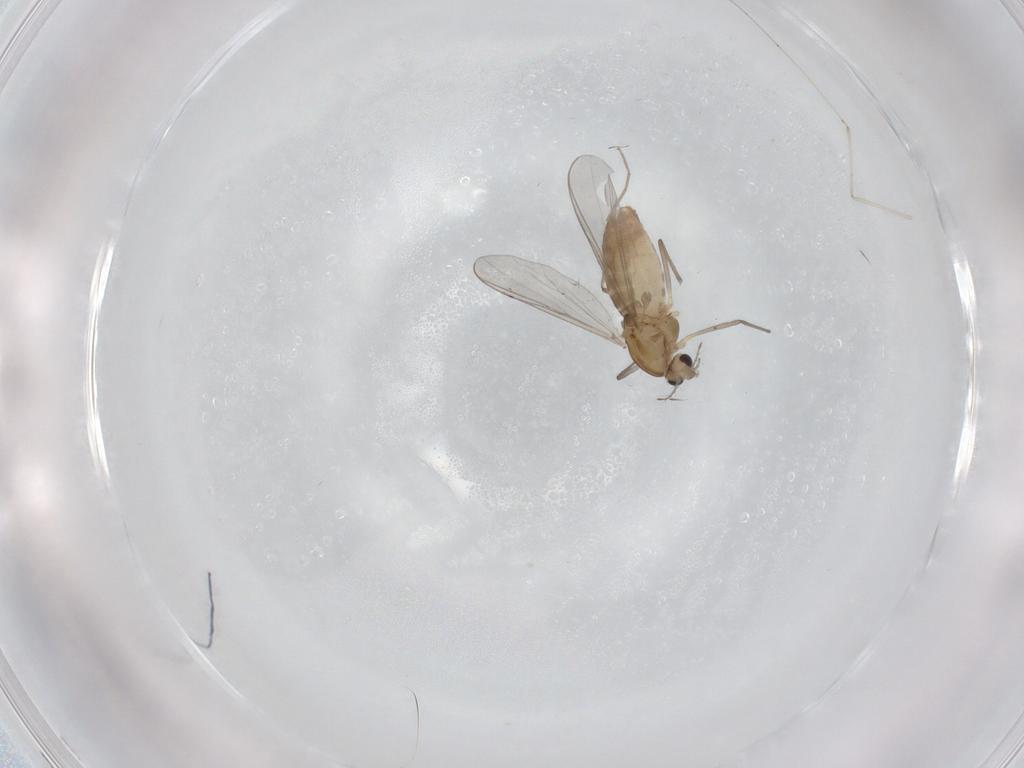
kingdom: Animalia
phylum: Arthropoda
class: Insecta
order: Diptera
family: Chironomidae
